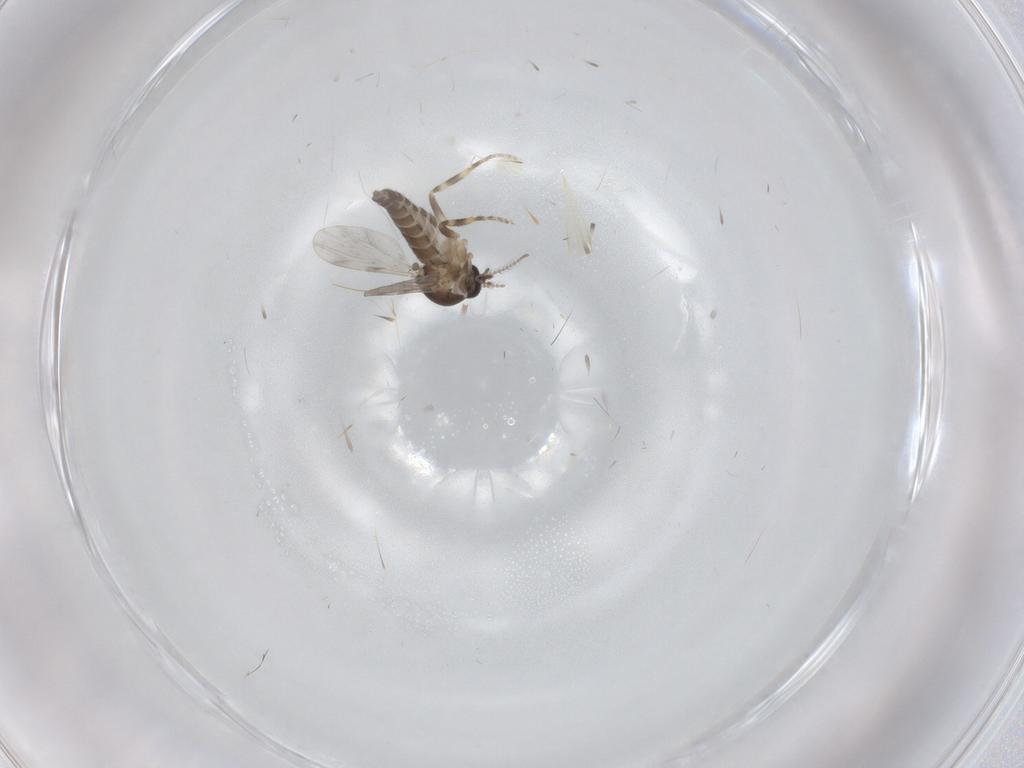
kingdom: Animalia
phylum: Arthropoda
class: Insecta
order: Diptera
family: Ceratopogonidae
